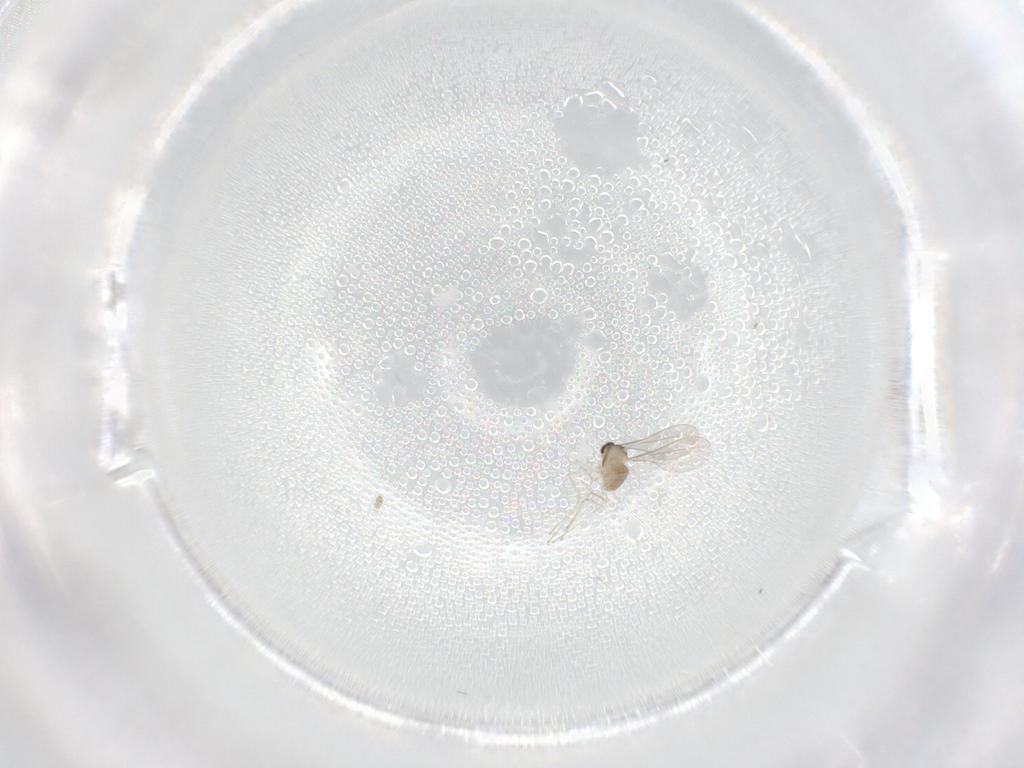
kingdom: Animalia
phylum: Arthropoda
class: Insecta
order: Diptera
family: Cecidomyiidae
